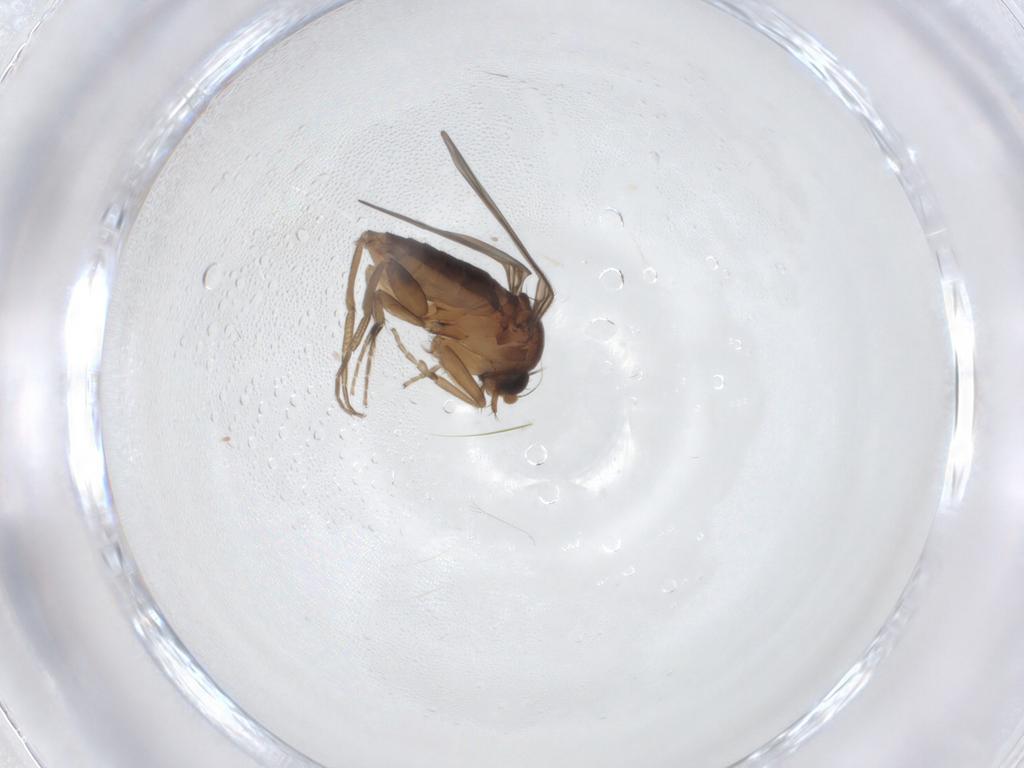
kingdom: Animalia
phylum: Arthropoda
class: Insecta
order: Diptera
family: Phoridae
